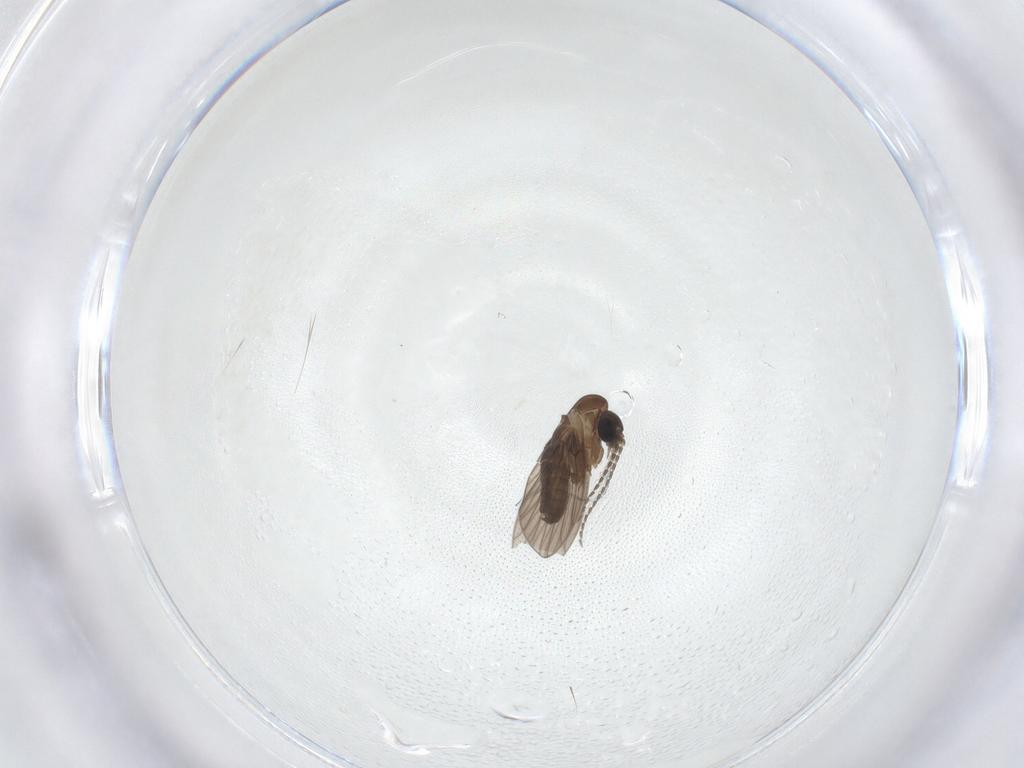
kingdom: Animalia
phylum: Arthropoda
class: Insecta
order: Diptera
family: Psychodidae
